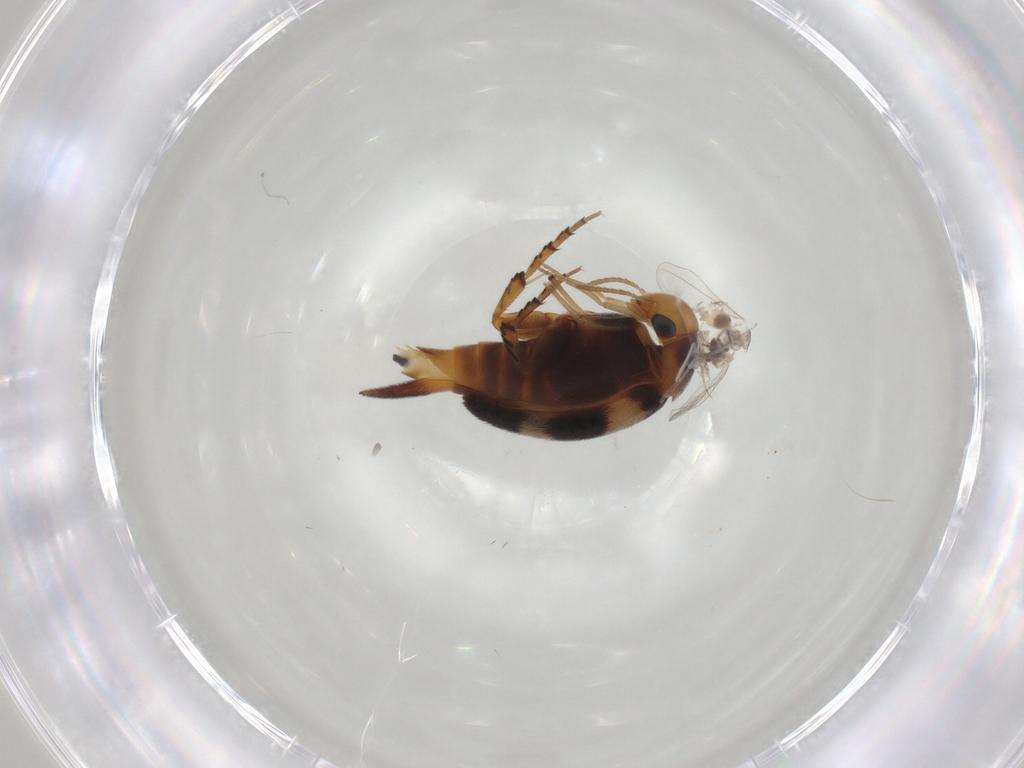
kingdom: Animalia
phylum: Arthropoda
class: Insecta
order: Coleoptera
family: Mordellidae
